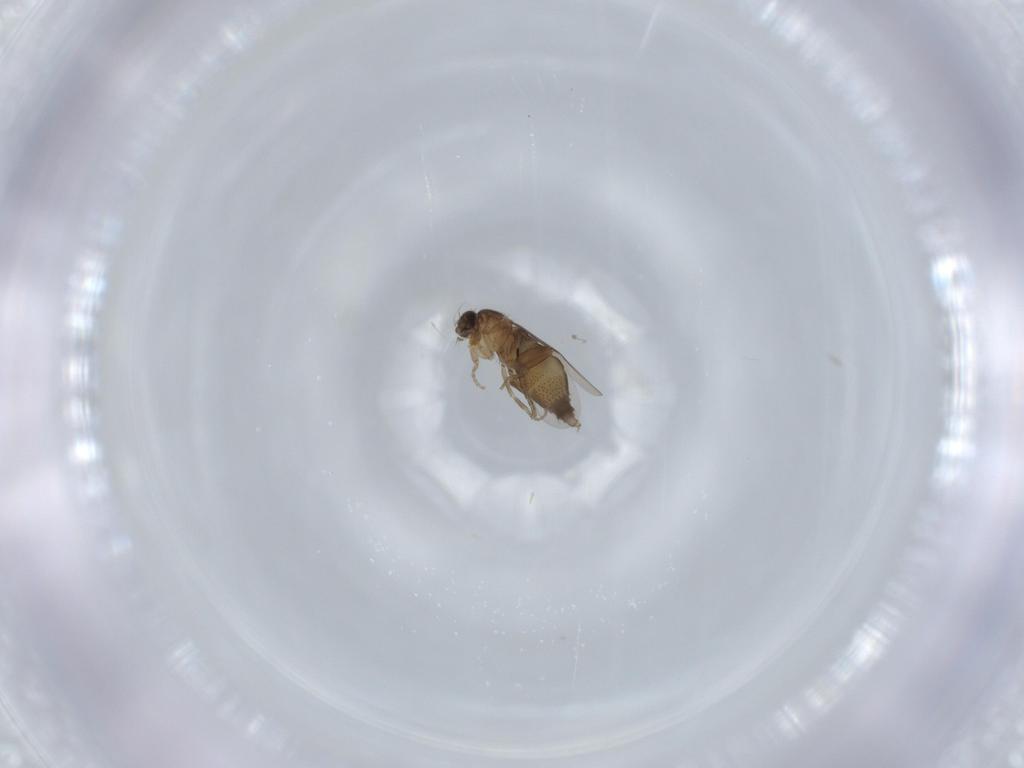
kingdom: Animalia
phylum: Arthropoda
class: Insecta
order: Diptera
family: Phoridae
